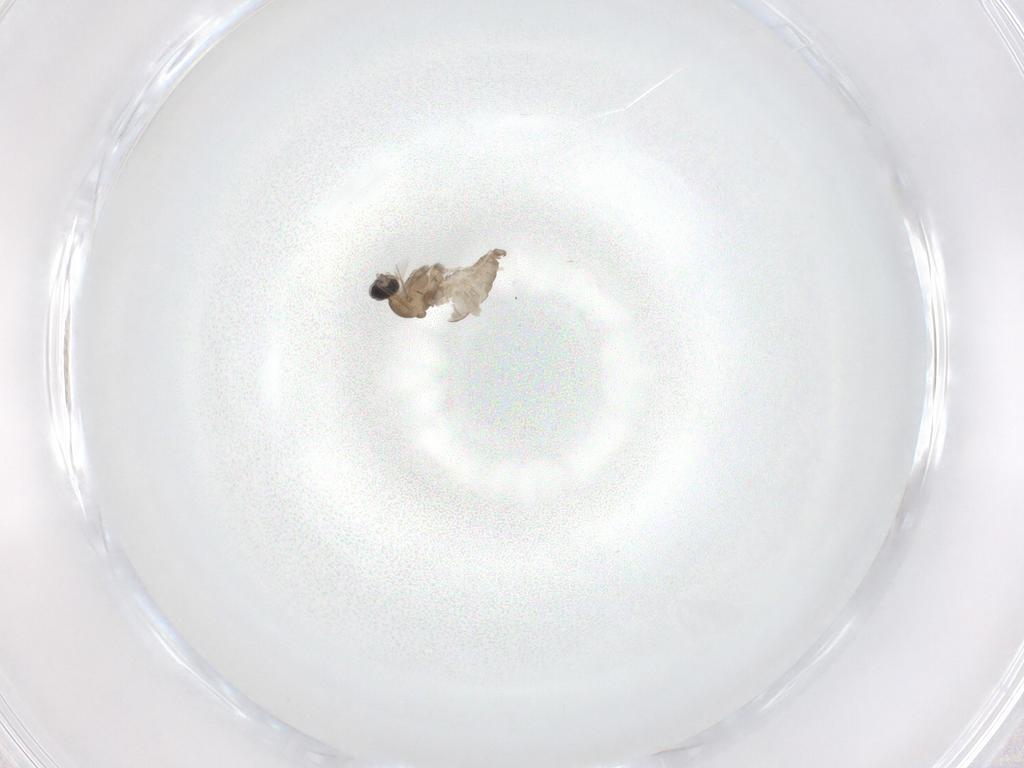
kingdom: Animalia
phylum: Arthropoda
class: Insecta
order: Diptera
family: Cecidomyiidae
